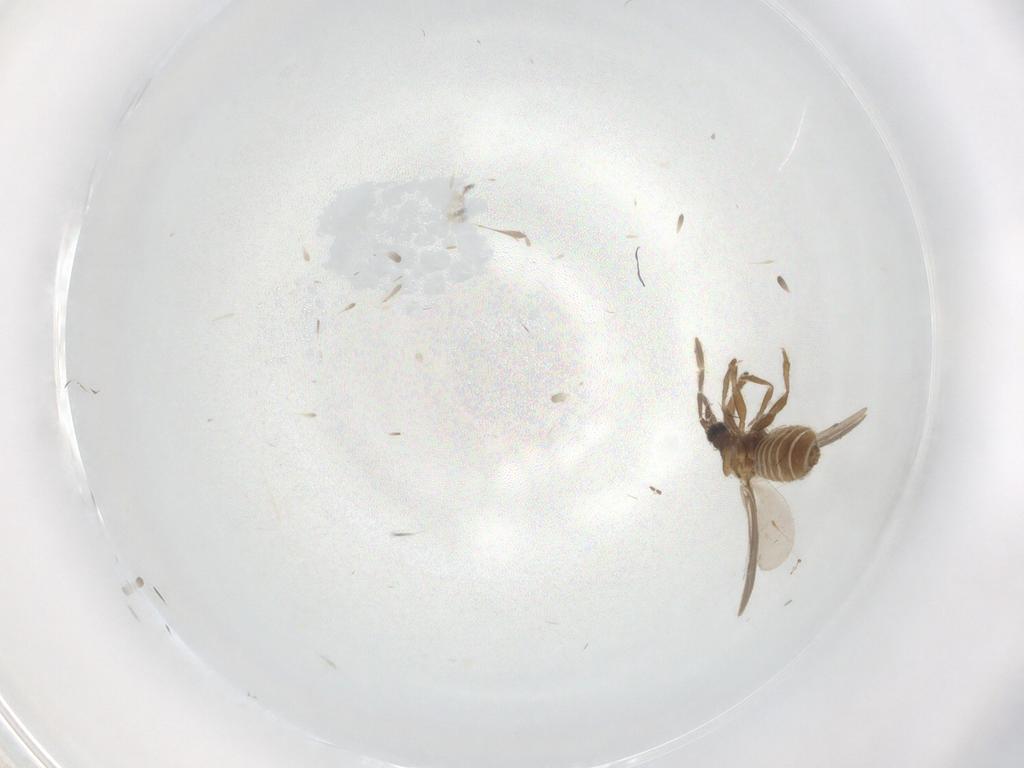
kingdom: Animalia
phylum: Arthropoda
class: Insecta
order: Hemiptera
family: Enicocephalidae
